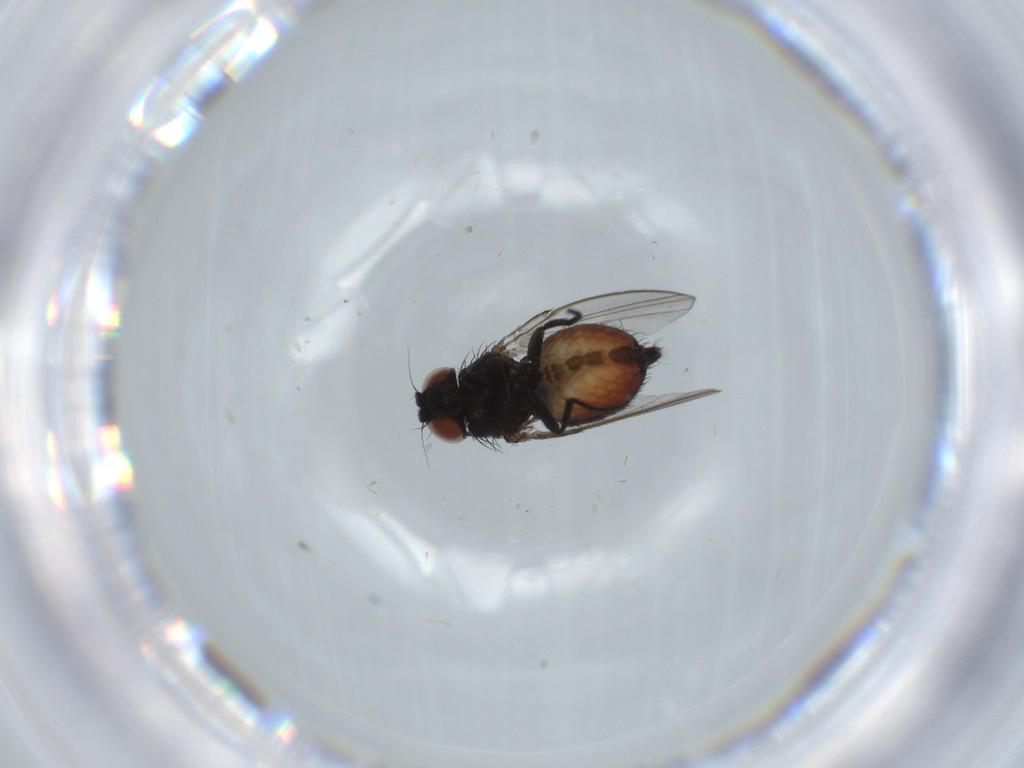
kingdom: Animalia
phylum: Arthropoda
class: Insecta
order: Diptera
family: Milichiidae
